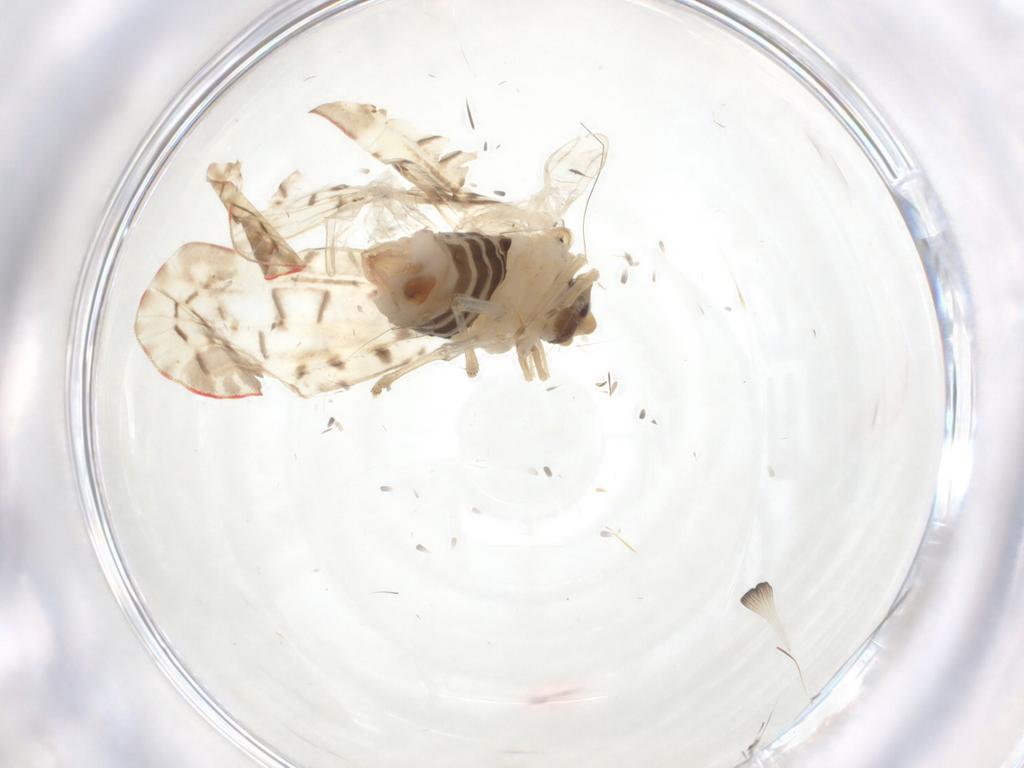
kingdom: Animalia
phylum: Arthropoda
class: Insecta
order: Hemiptera
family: Derbidae
